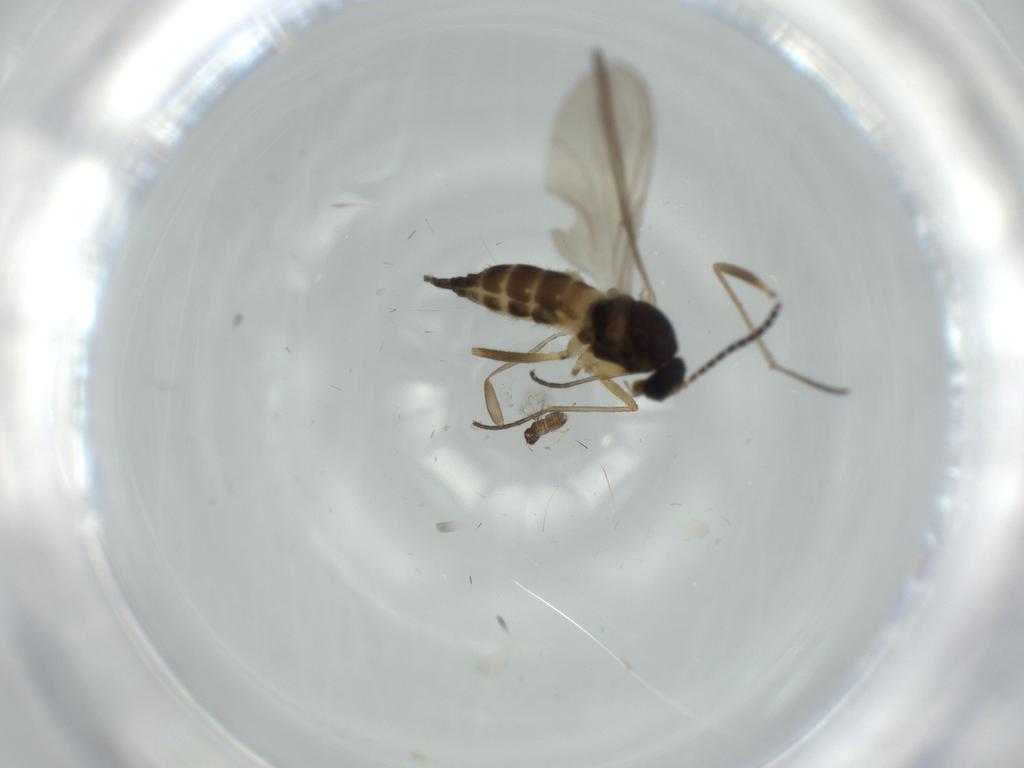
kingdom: Animalia
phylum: Arthropoda
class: Insecta
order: Diptera
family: Sciaridae
